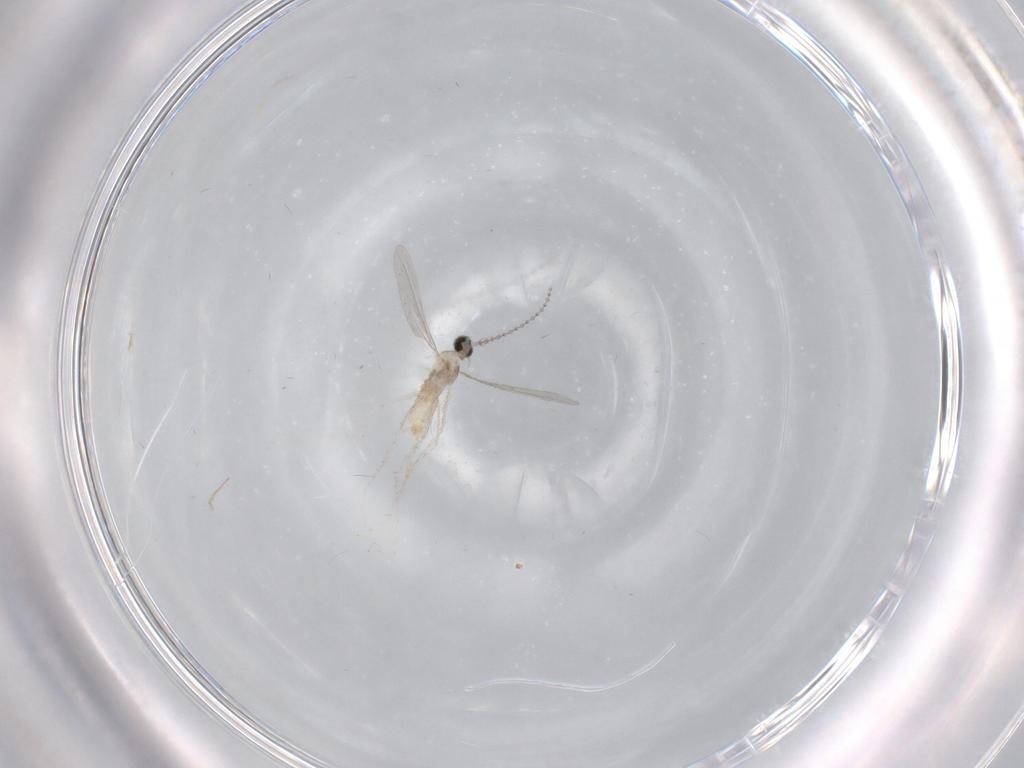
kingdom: Animalia
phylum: Arthropoda
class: Insecta
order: Diptera
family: Cecidomyiidae
